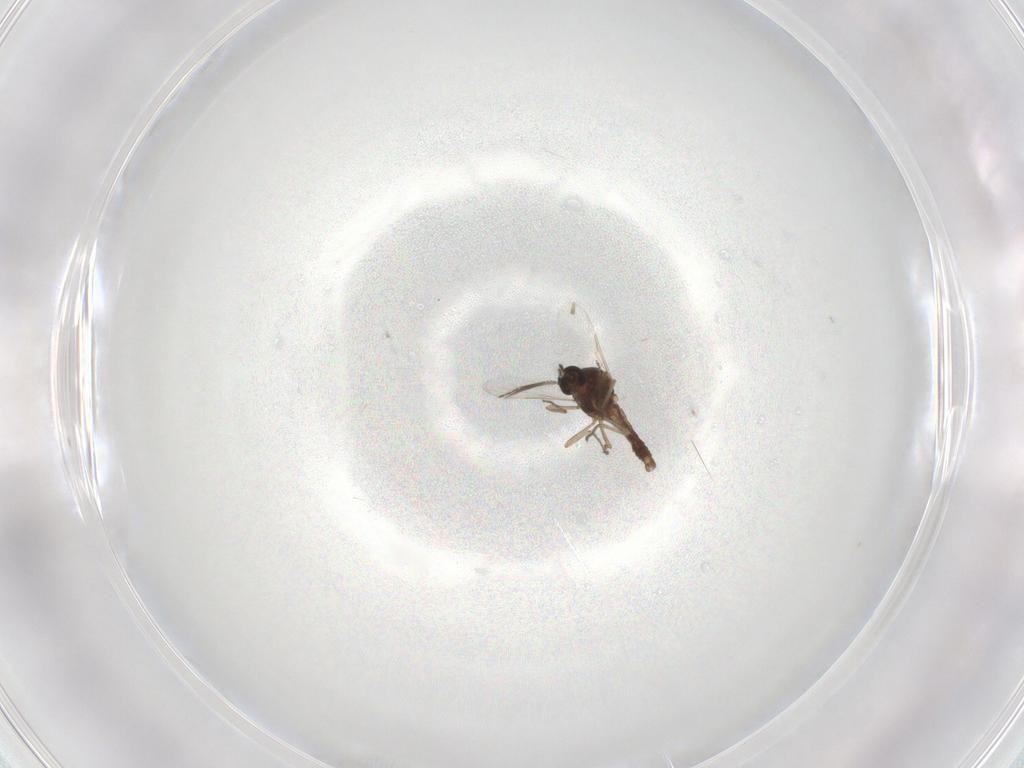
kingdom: Animalia
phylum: Arthropoda
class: Insecta
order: Diptera
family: Ceratopogonidae
